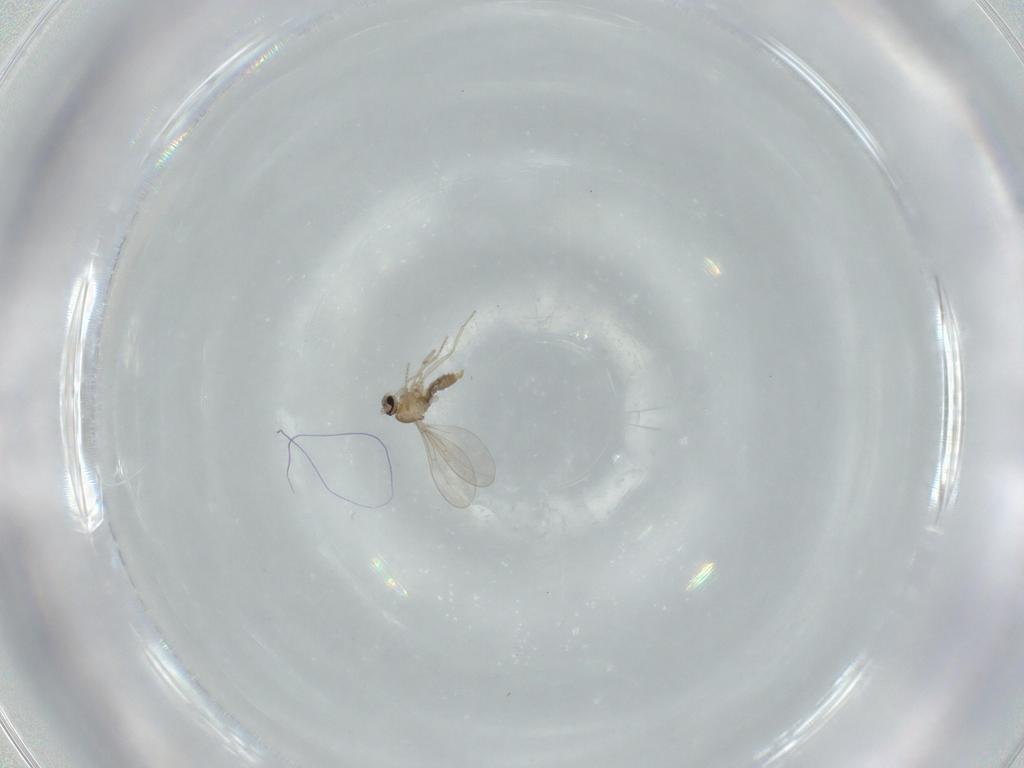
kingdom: Animalia
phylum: Arthropoda
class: Insecta
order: Diptera
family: Cecidomyiidae
